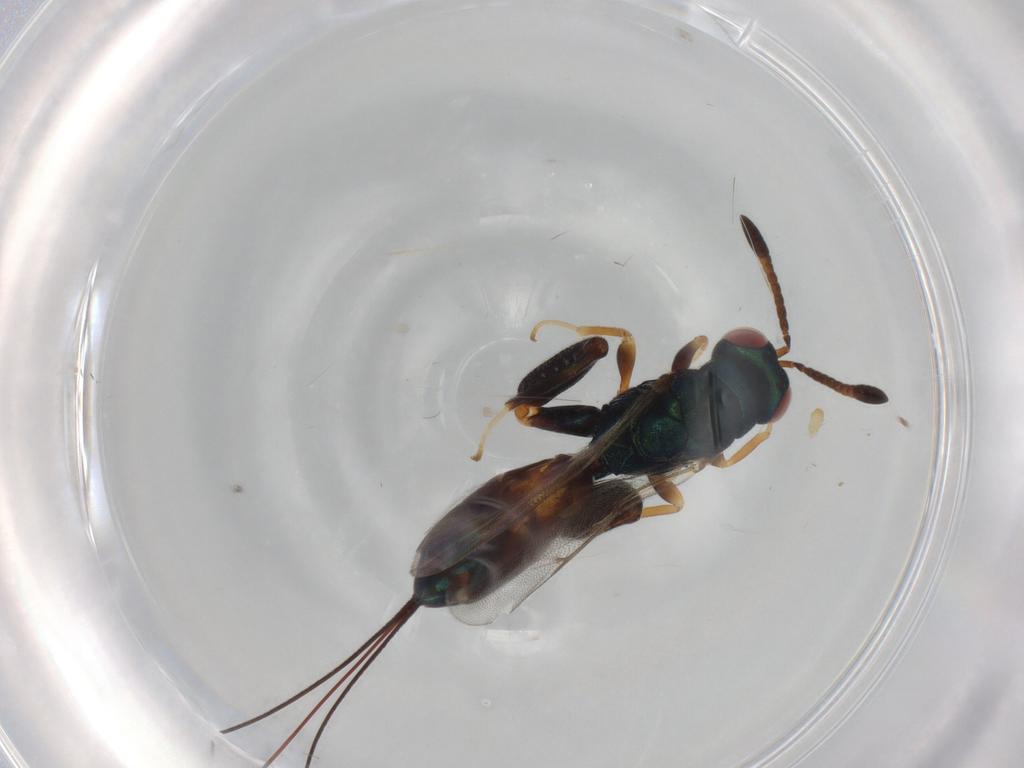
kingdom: Animalia
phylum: Arthropoda
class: Insecta
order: Hymenoptera
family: Torymidae
